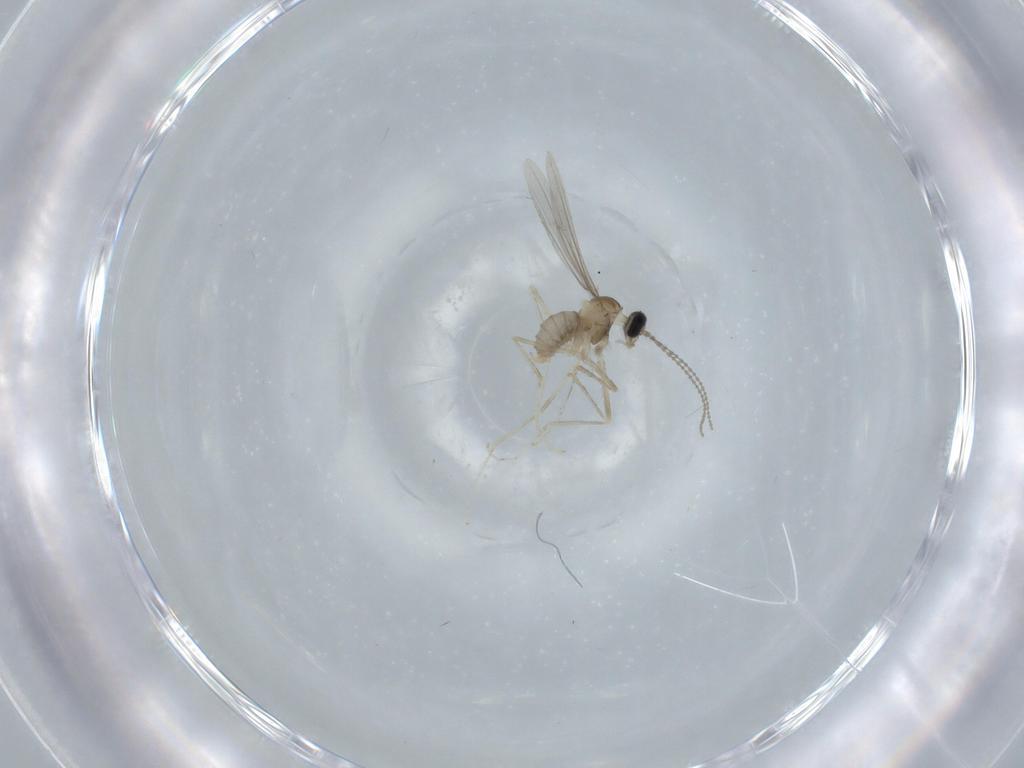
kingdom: Animalia
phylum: Arthropoda
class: Insecta
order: Diptera
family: Cecidomyiidae
